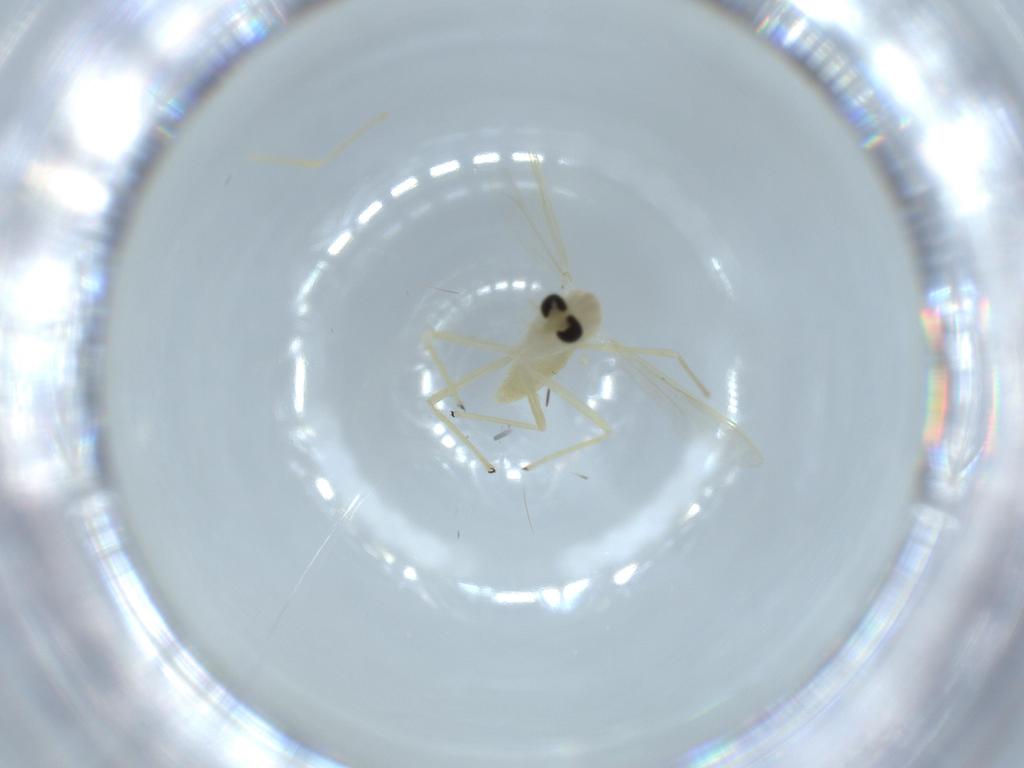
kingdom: Animalia
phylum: Arthropoda
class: Insecta
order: Diptera
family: Chironomidae
